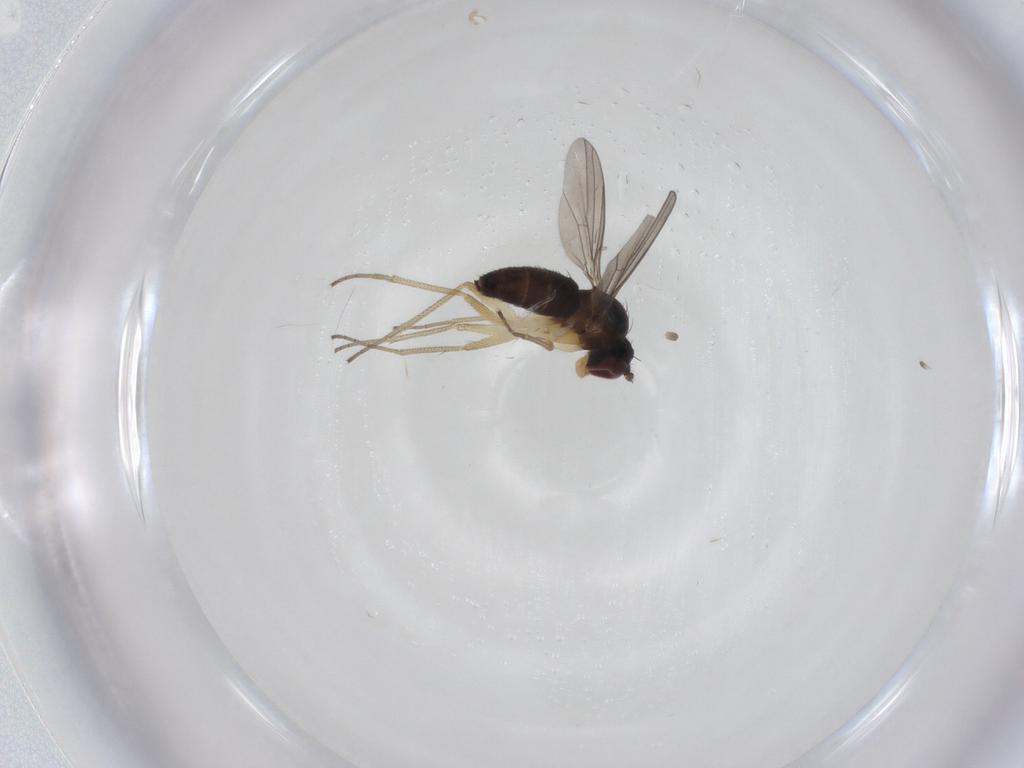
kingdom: Animalia
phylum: Arthropoda
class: Insecta
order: Diptera
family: Dolichopodidae
